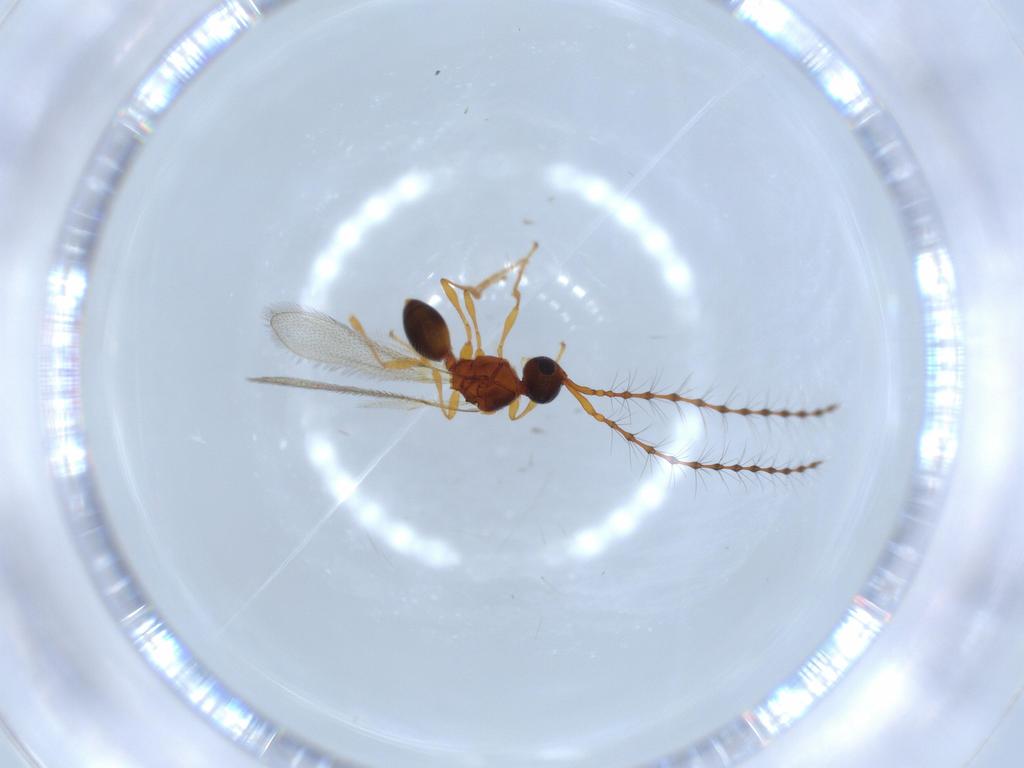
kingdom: Animalia
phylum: Arthropoda
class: Insecta
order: Hymenoptera
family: Diapriidae
